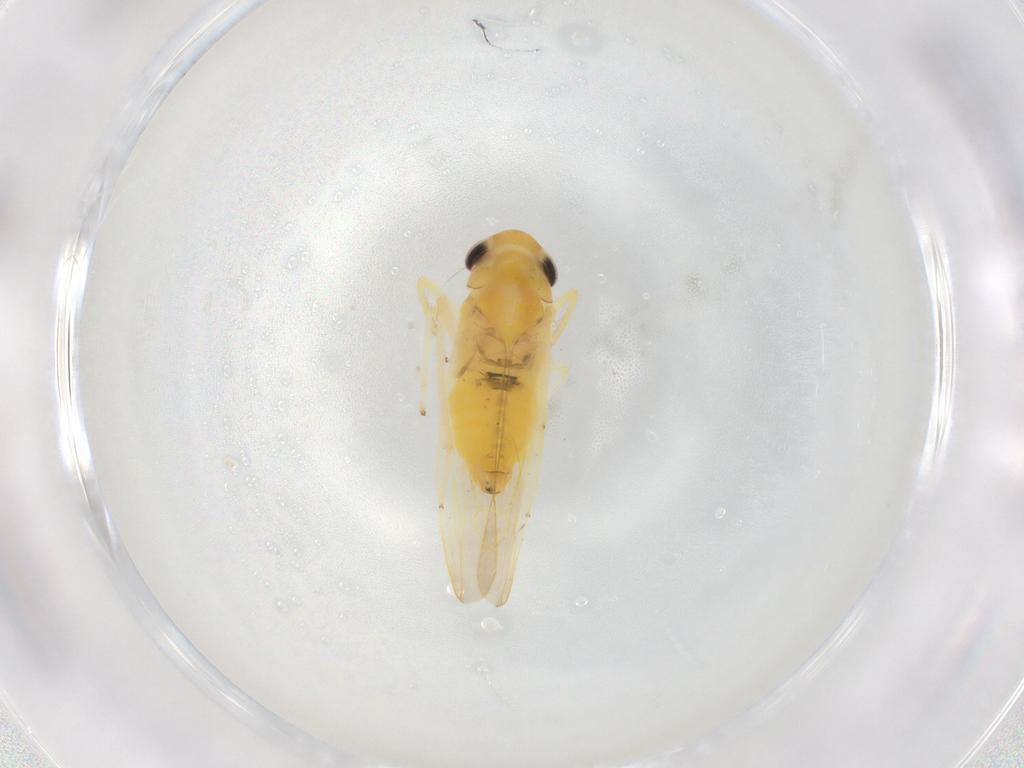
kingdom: Animalia
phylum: Arthropoda
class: Insecta
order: Hemiptera
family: Cicadellidae
